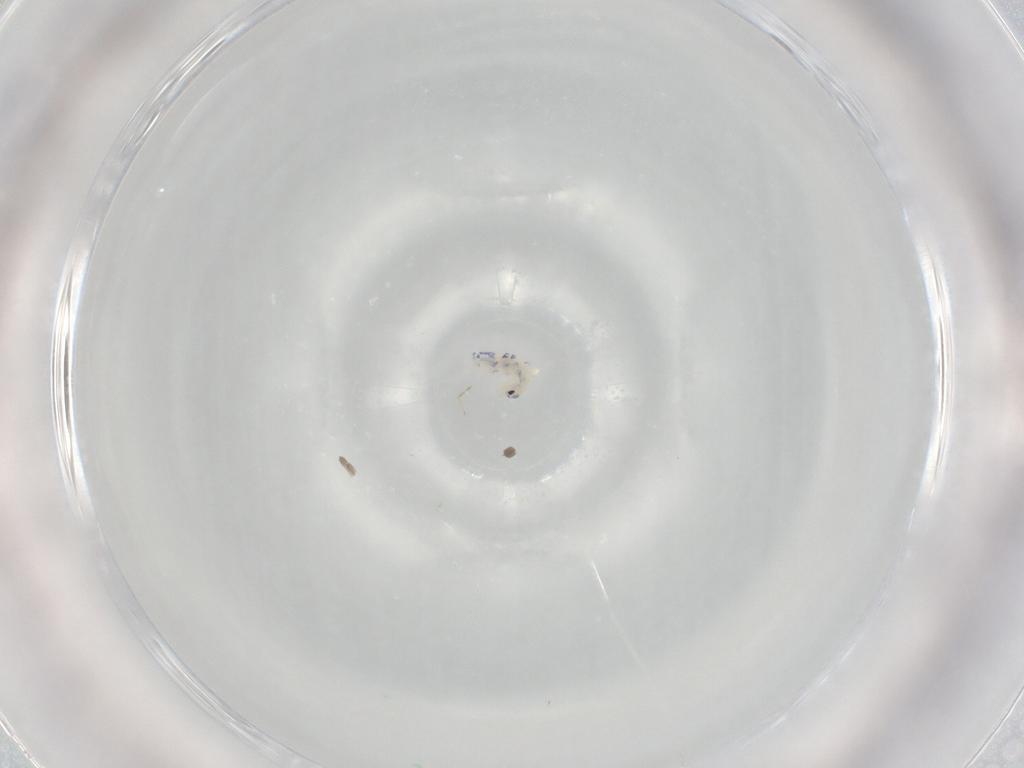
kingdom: Animalia
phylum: Arthropoda
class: Collembola
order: Entomobryomorpha
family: Entomobryidae
